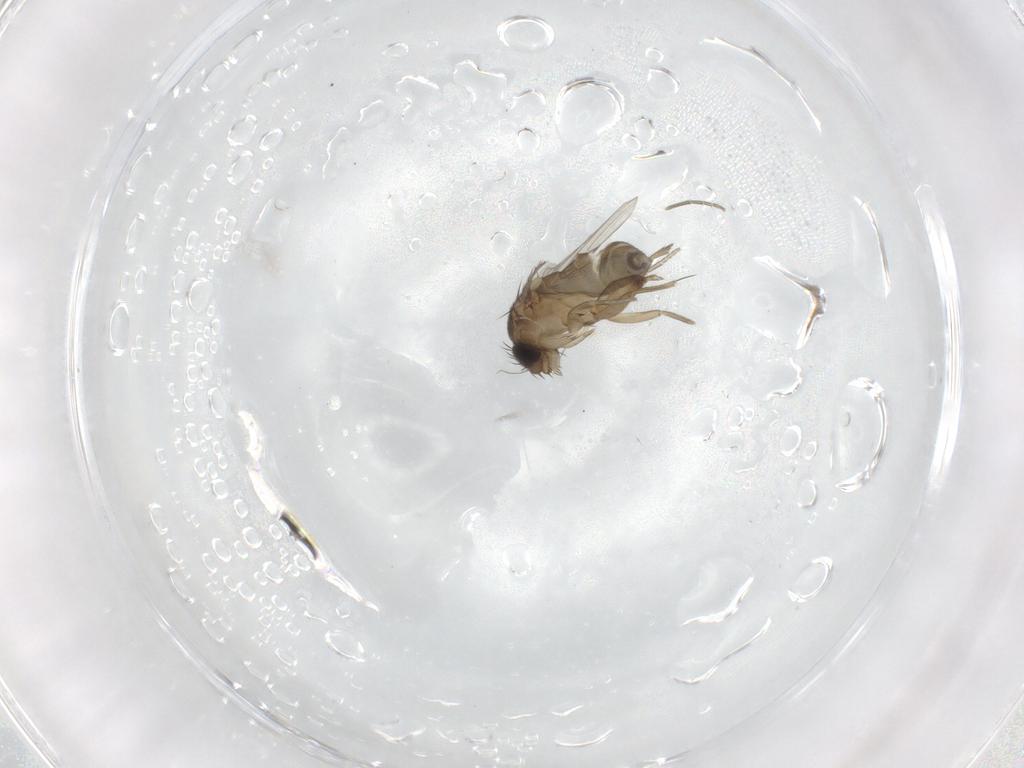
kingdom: Animalia
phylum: Arthropoda
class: Insecta
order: Diptera
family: Phoridae
